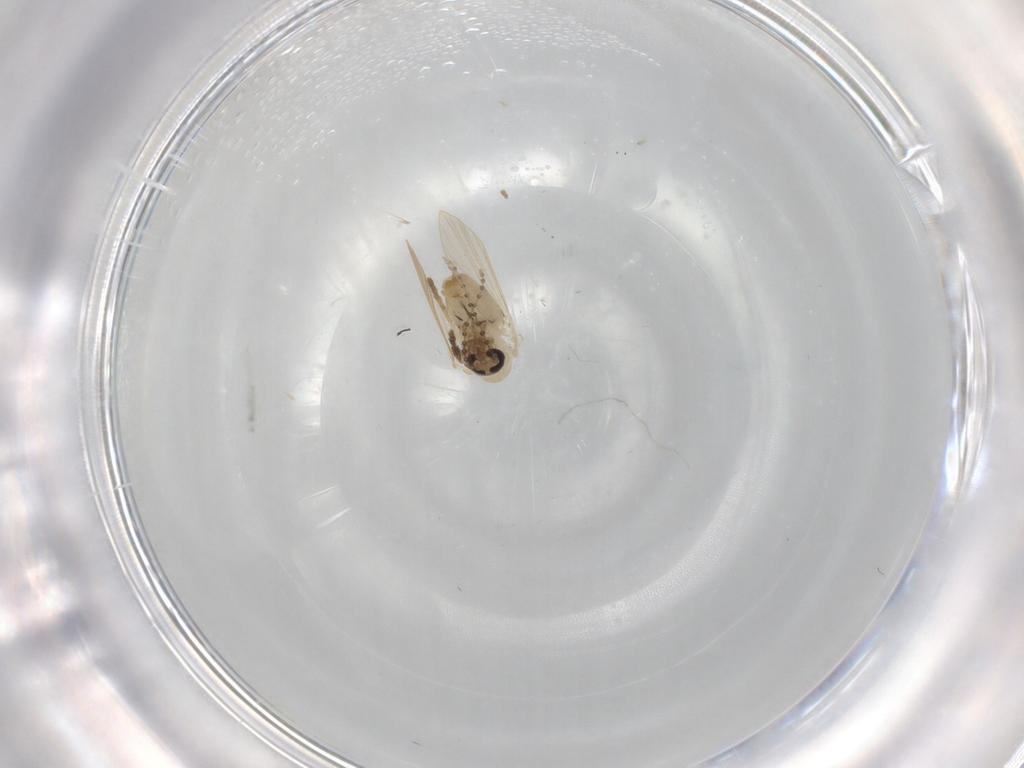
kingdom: Animalia
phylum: Arthropoda
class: Insecta
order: Diptera
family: Psychodidae
